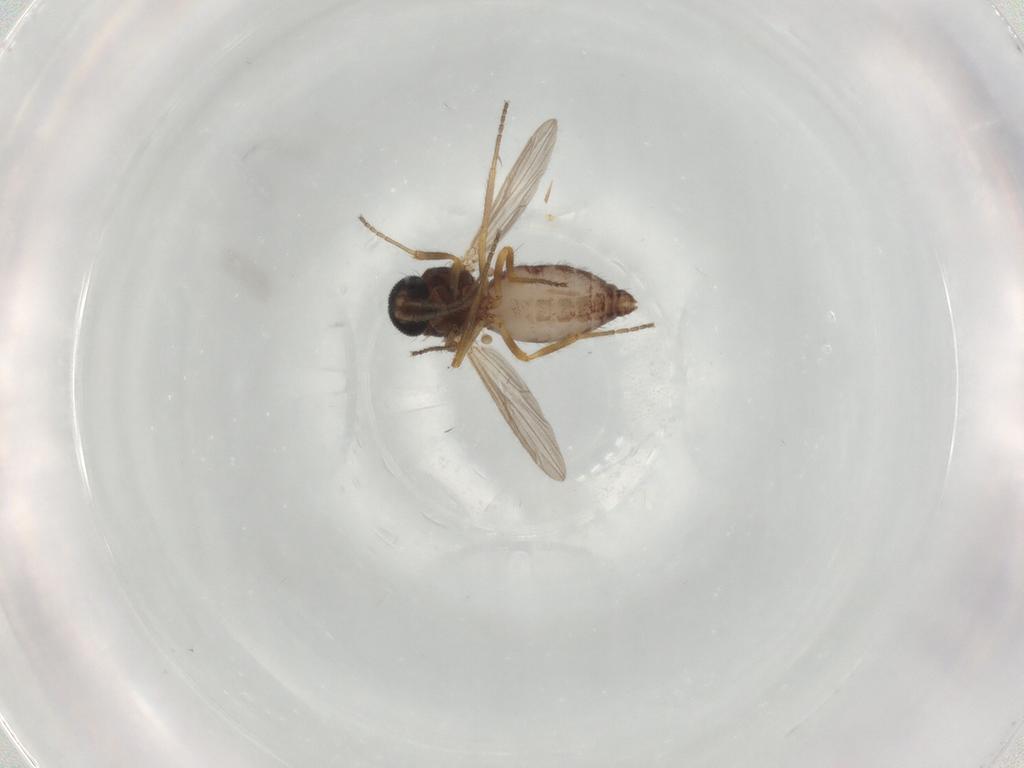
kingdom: Animalia
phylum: Arthropoda
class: Insecta
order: Diptera
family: Ceratopogonidae
